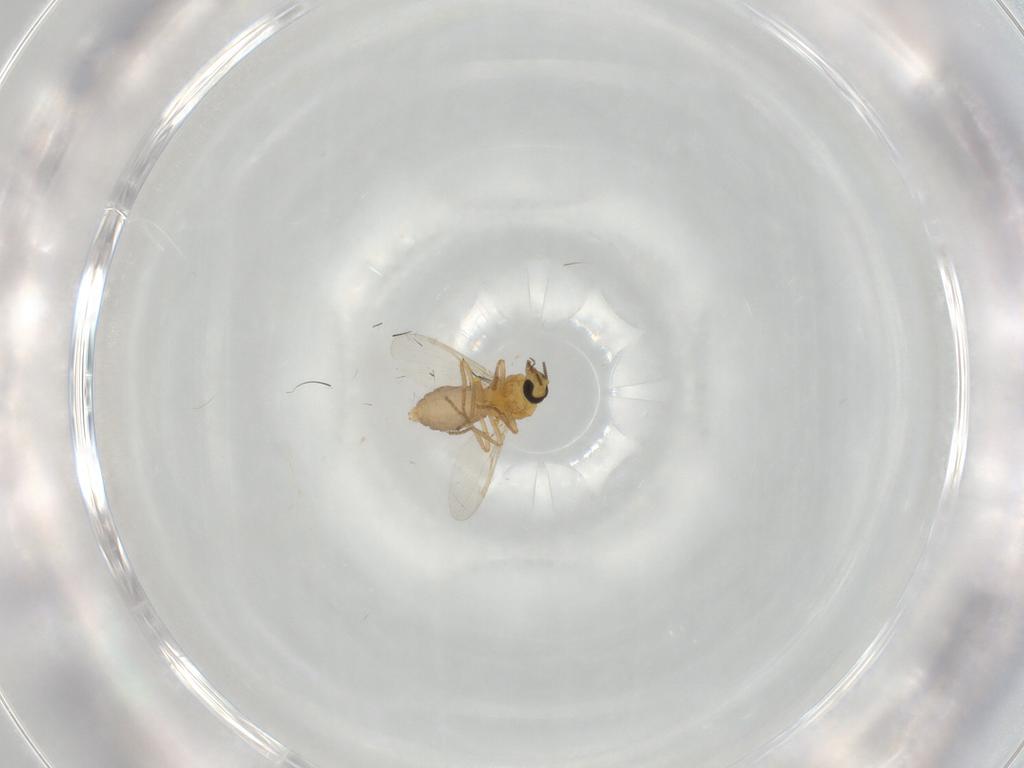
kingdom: Animalia
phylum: Arthropoda
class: Insecta
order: Diptera
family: Ceratopogonidae
